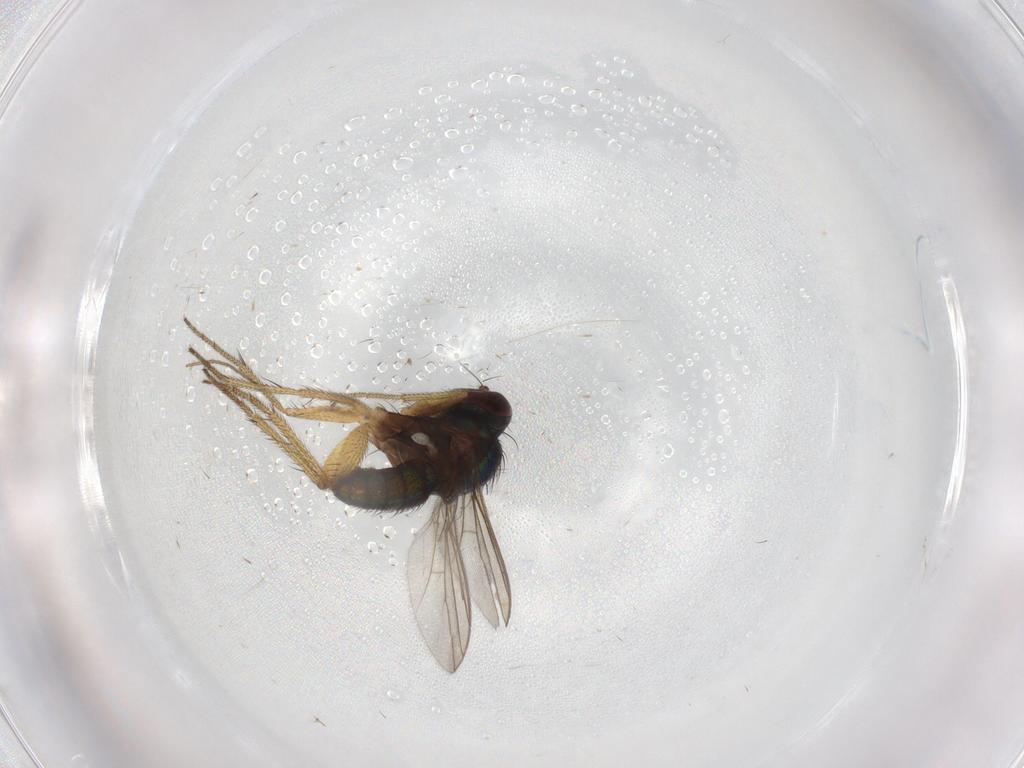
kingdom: Animalia
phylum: Arthropoda
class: Insecta
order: Diptera
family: Chironomidae
